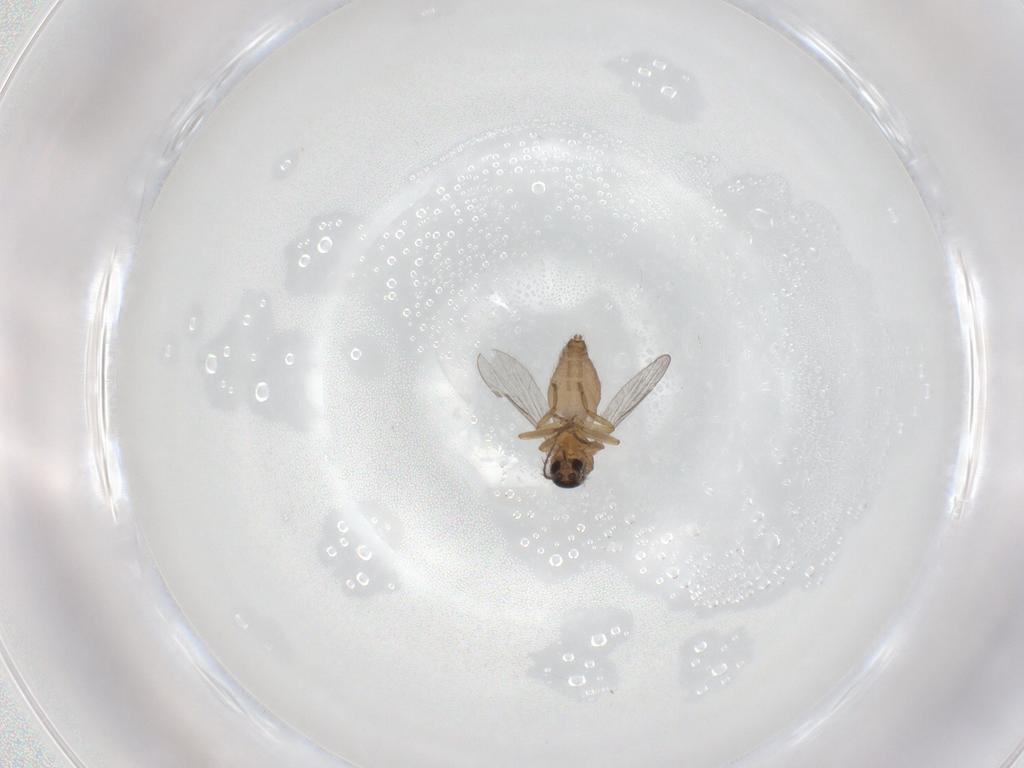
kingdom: Animalia
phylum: Arthropoda
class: Insecta
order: Diptera
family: Ceratopogonidae
